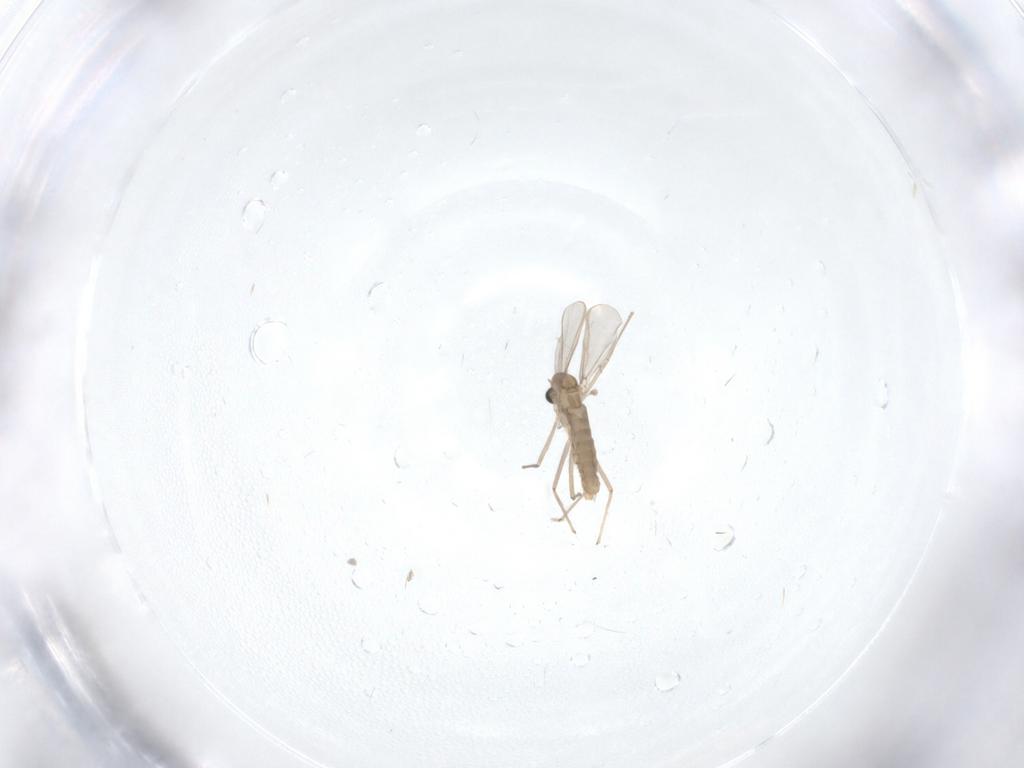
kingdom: Animalia
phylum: Arthropoda
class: Insecta
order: Diptera
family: Chironomidae
